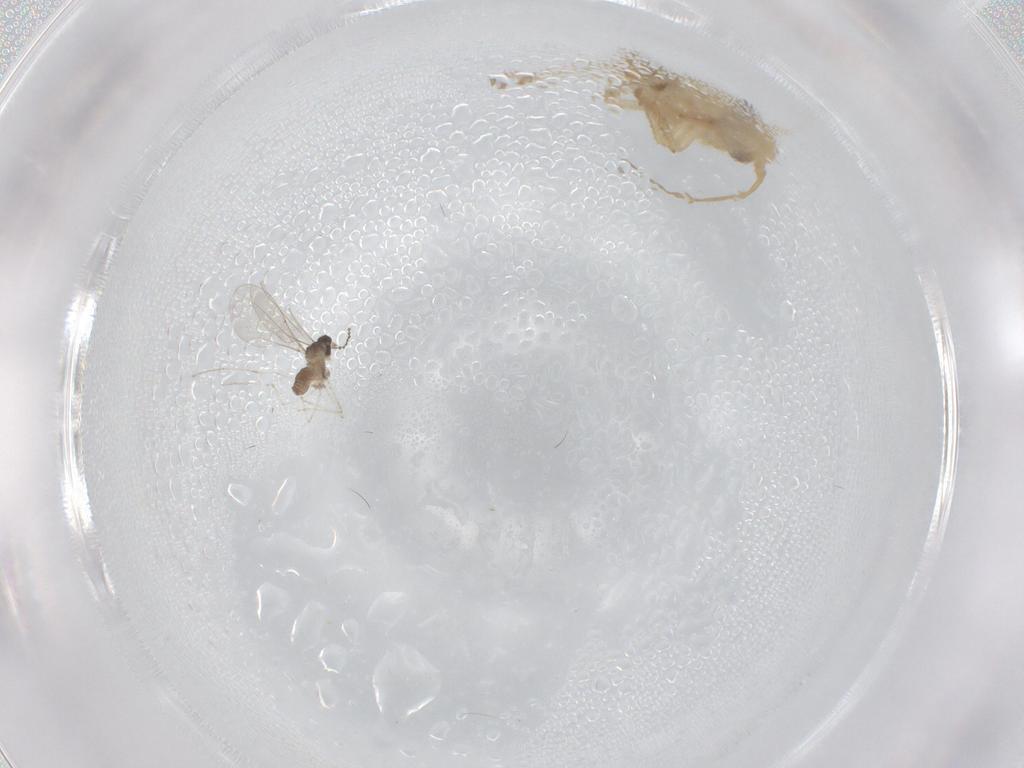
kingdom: Animalia
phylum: Arthropoda
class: Insecta
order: Diptera
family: Cecidomyiidae
